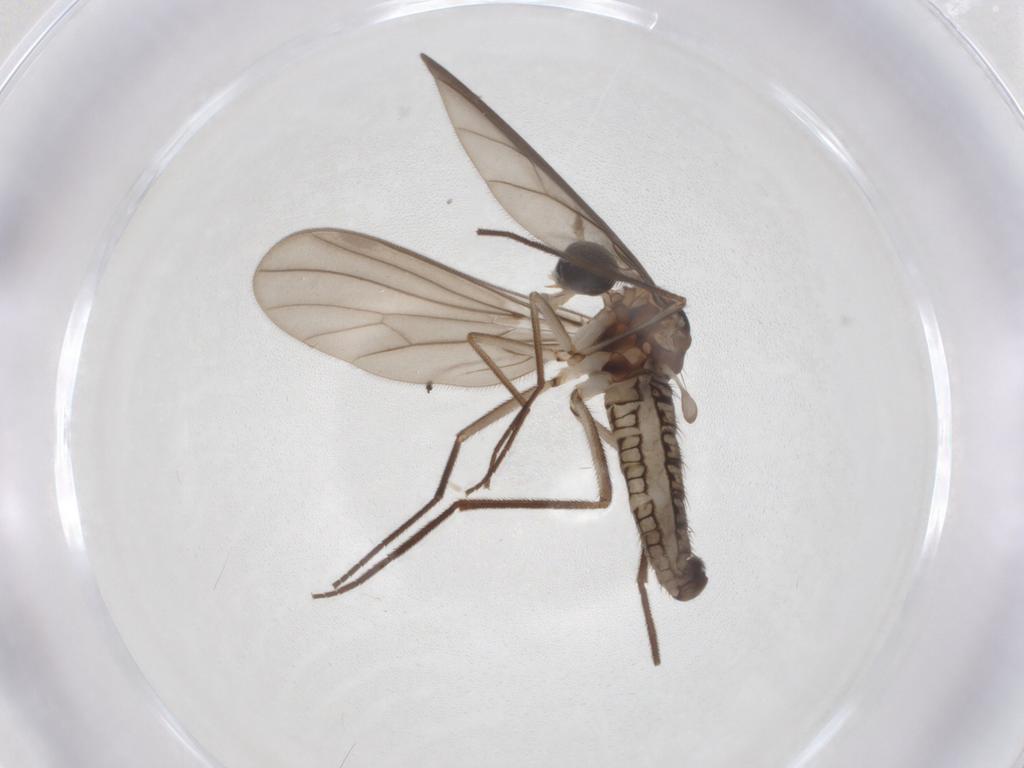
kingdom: Animalia
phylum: Arthropoda
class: Insecta
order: Diptera
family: Empididae
